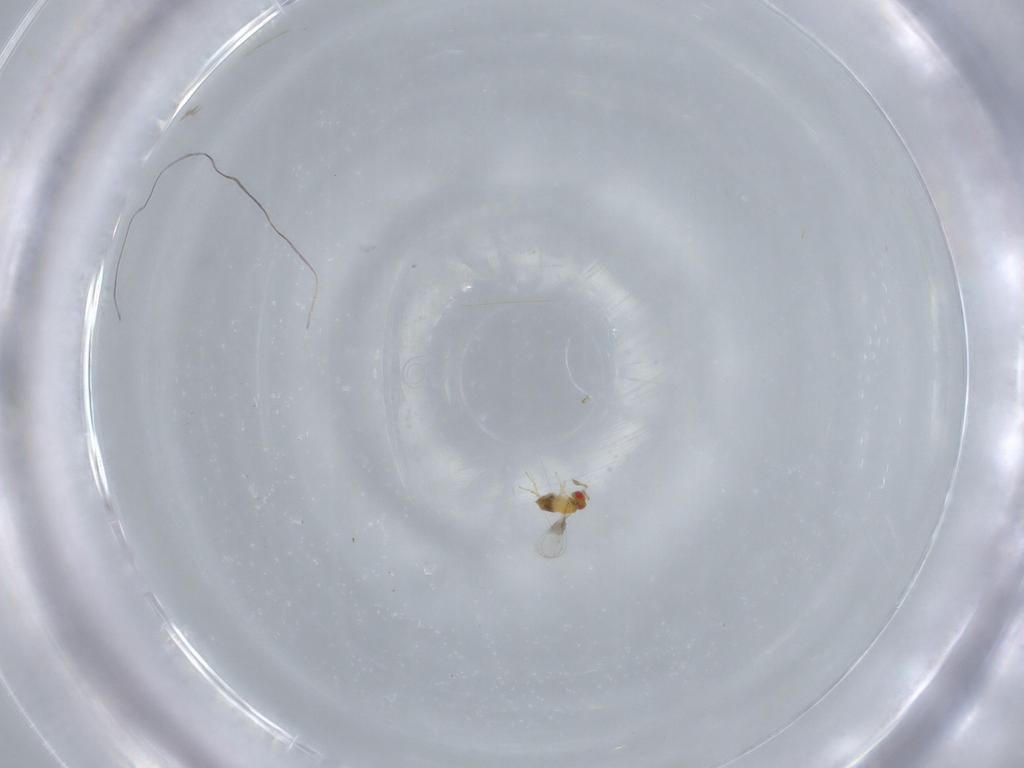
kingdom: Animalia
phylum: Arthropoda
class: Insecta
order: Hymenoptera
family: Trichogrammatidae
